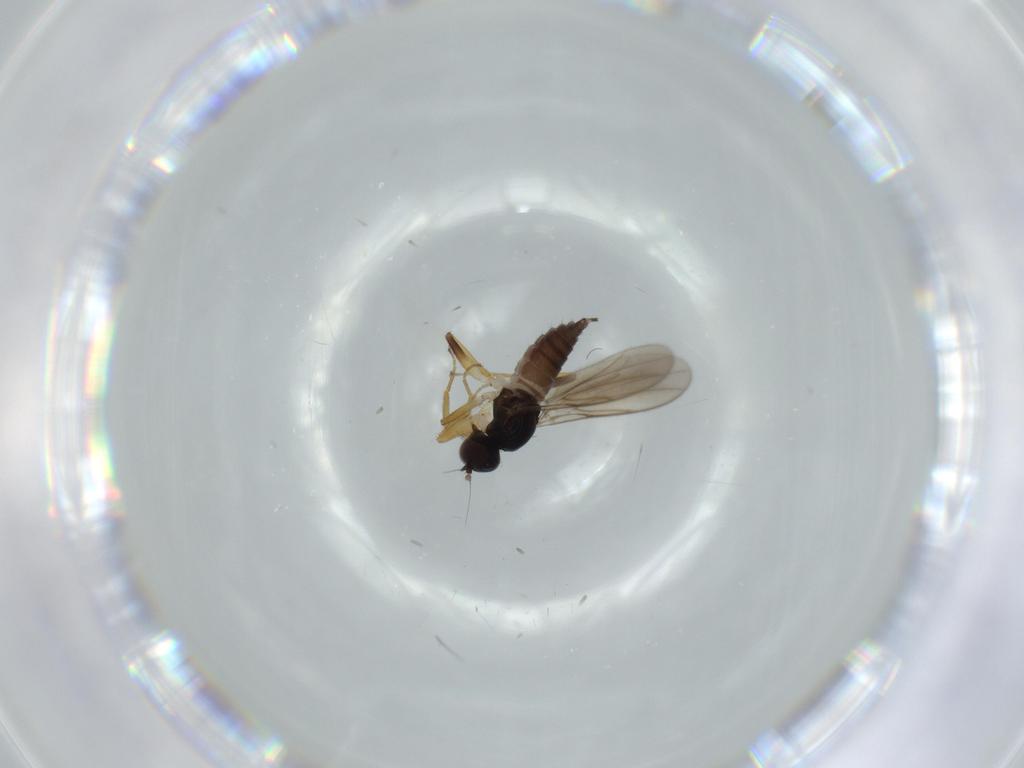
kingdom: Animalia
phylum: Arthropoda
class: Insecta
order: Diptera
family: Hybotidae
